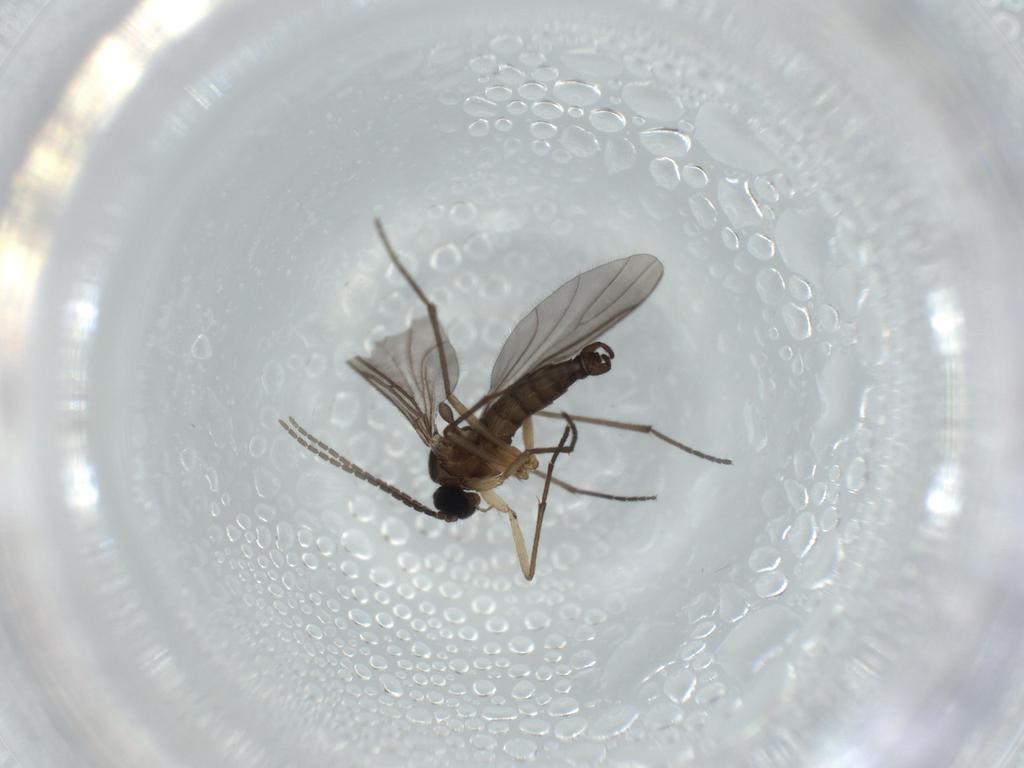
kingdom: Animalia
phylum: Arthropoda
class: Insecta
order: Diptera
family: Sciaridae
